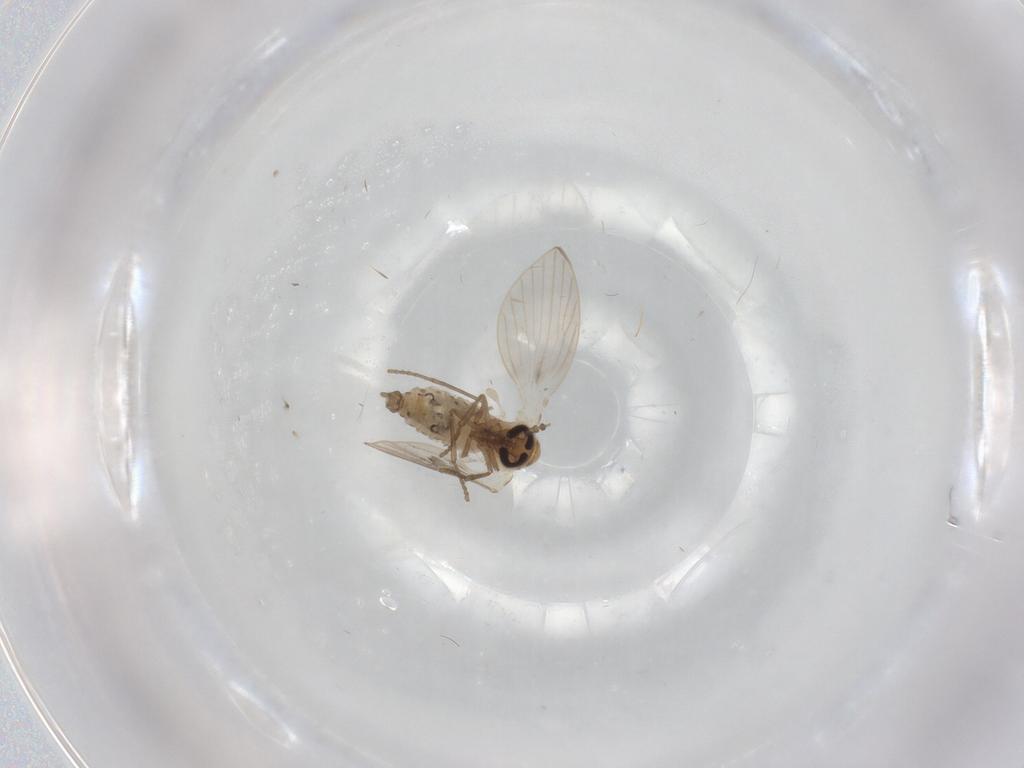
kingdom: Animalia
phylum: Arthropoda
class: Insecta
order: Diptera
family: Psychodidae
